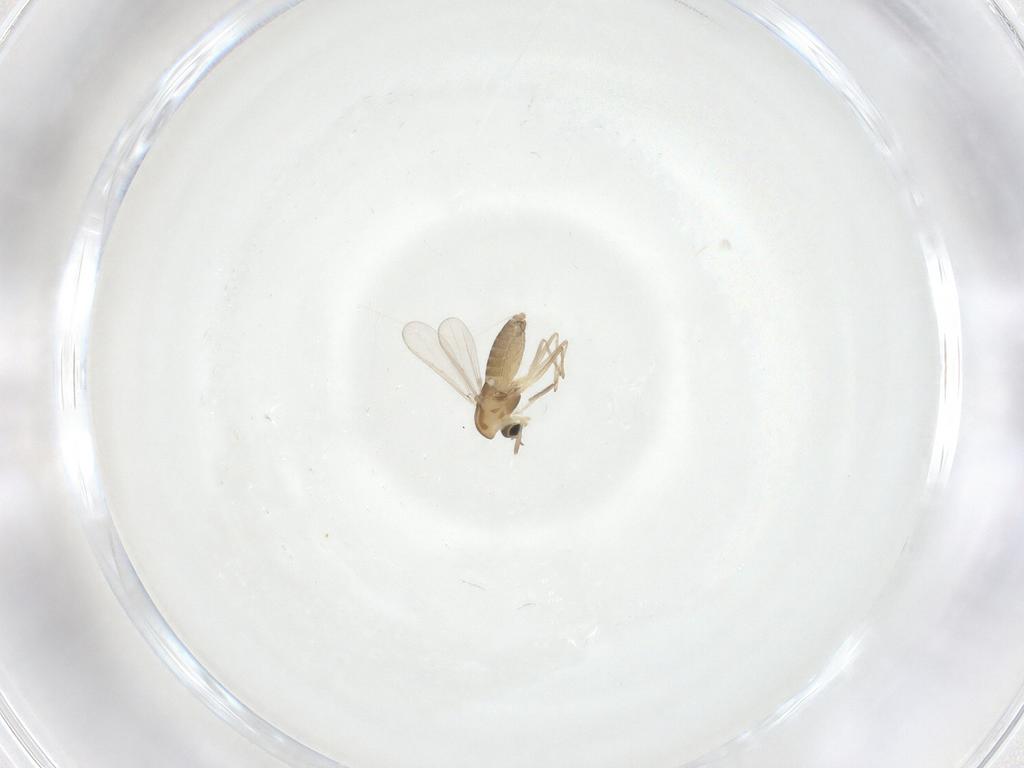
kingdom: Animalia
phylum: Arthropoda
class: Insecta
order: Diptera
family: Chironomidae
